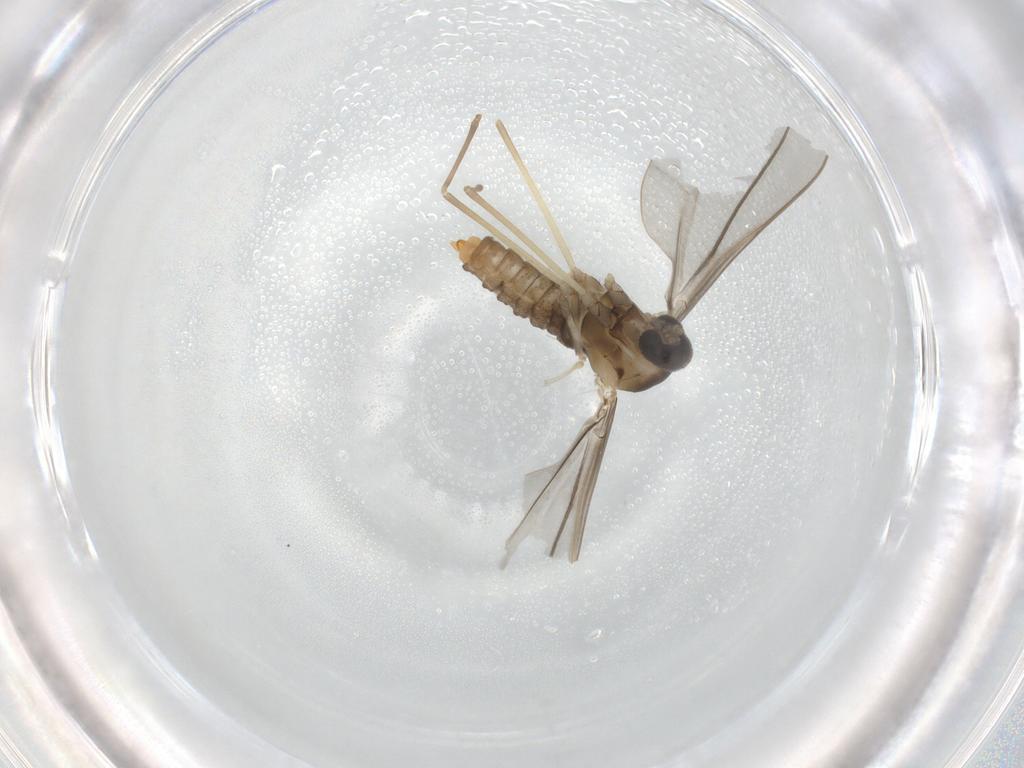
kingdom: Animalia
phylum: Arthropoda
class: Insecta
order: Diptera
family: Cecidomyiidae
